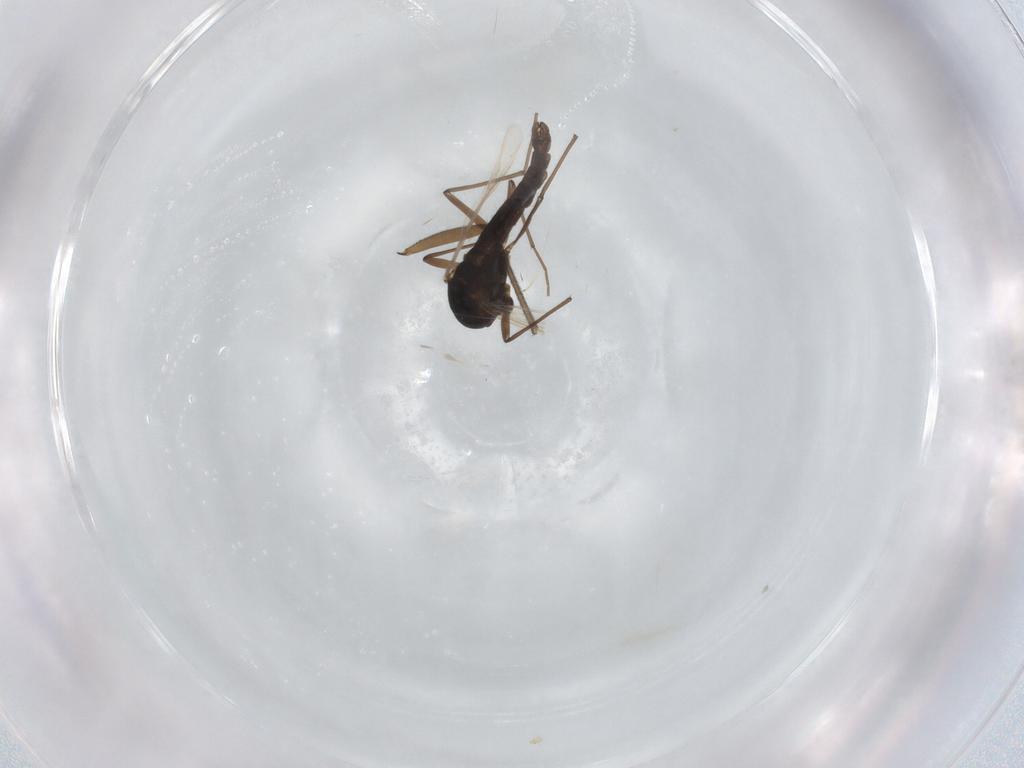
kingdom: Animalia
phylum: Arthropoda
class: Insecta
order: Diptera
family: Chironomidae
